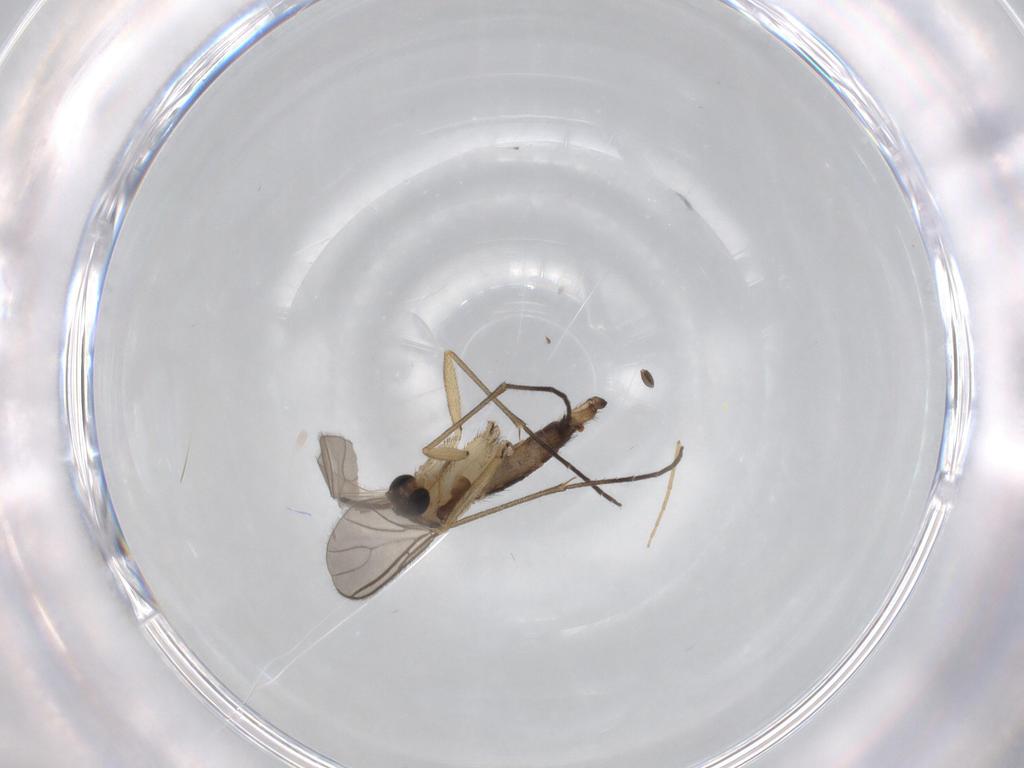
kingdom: Animalia
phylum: Arthropoda
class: Insecta
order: Diptera
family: Sciaridae
